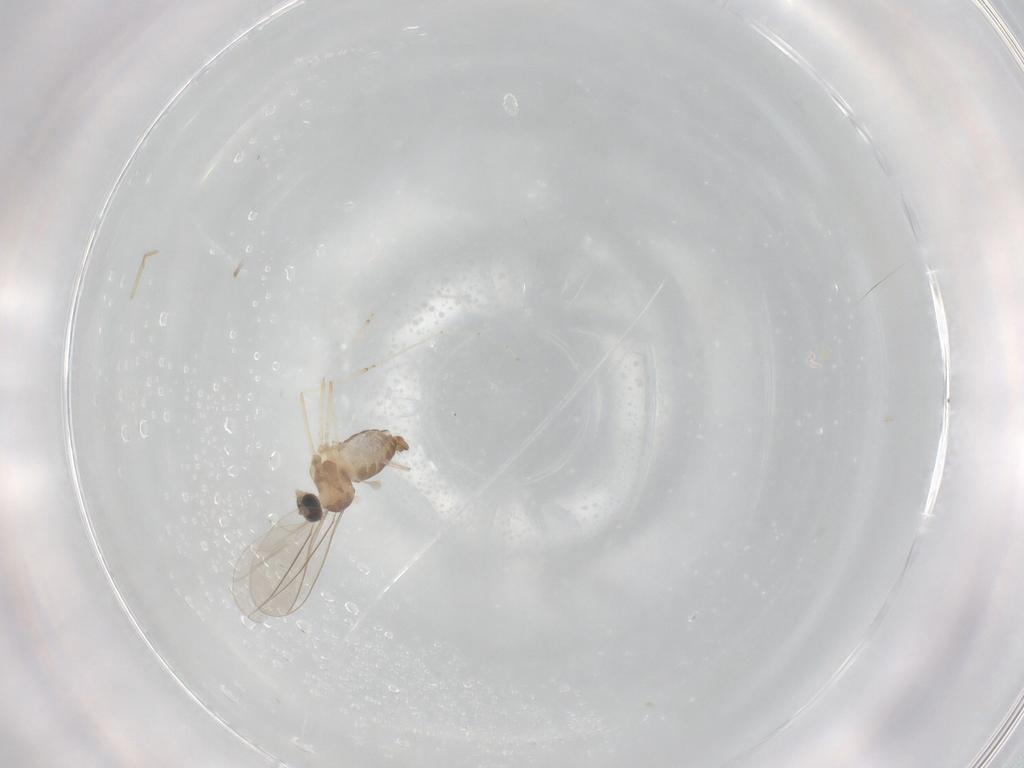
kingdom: Animalia
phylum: Arthropoda
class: Insecta
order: Diptera
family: Cecidomyiidae
